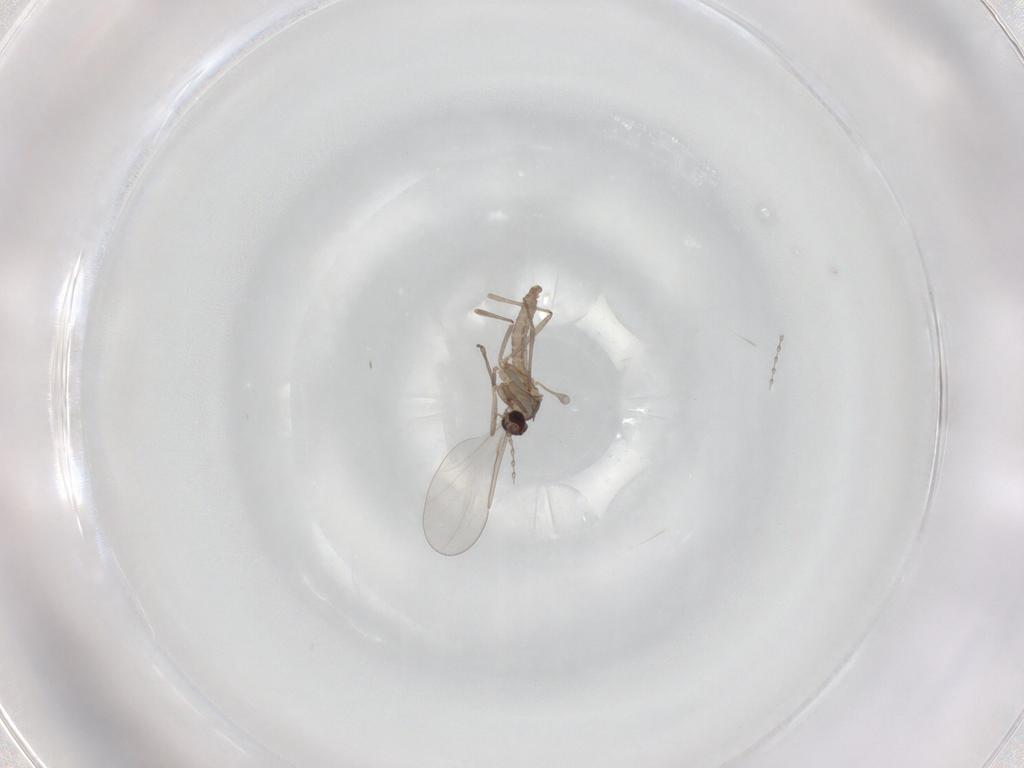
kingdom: Animalia
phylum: Arthropoda
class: Insecta
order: Diptera
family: Cecidomyiidae
